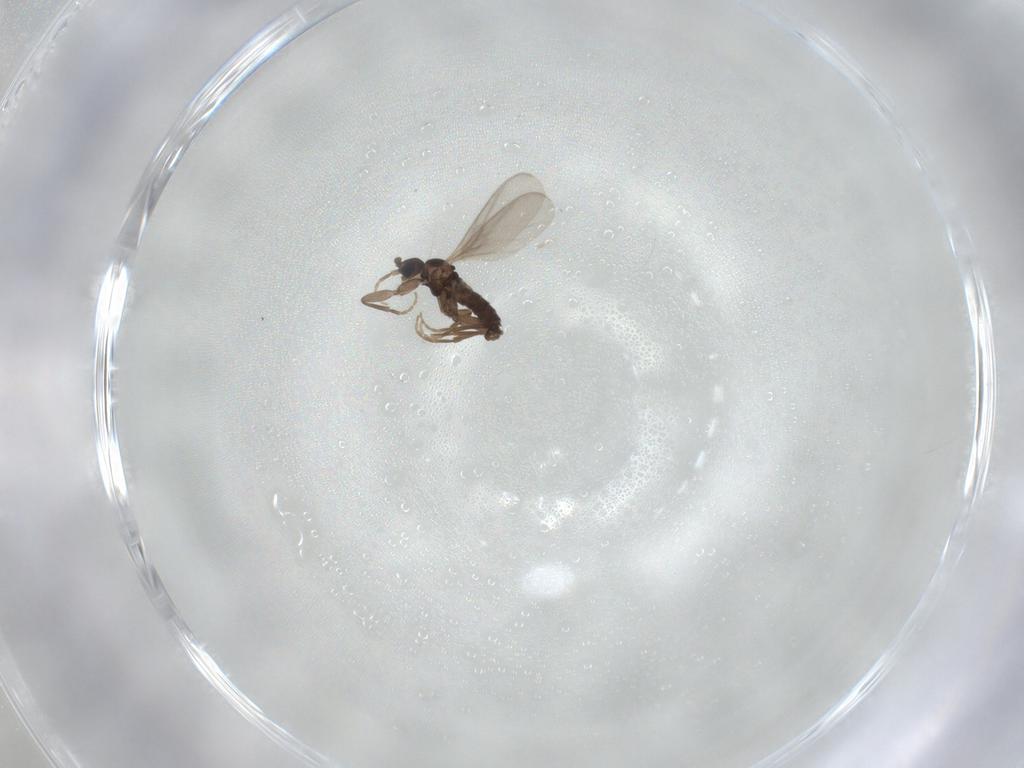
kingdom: Animalia
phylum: Arthropoda
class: Insecta
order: Diptera
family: Sciaridae
